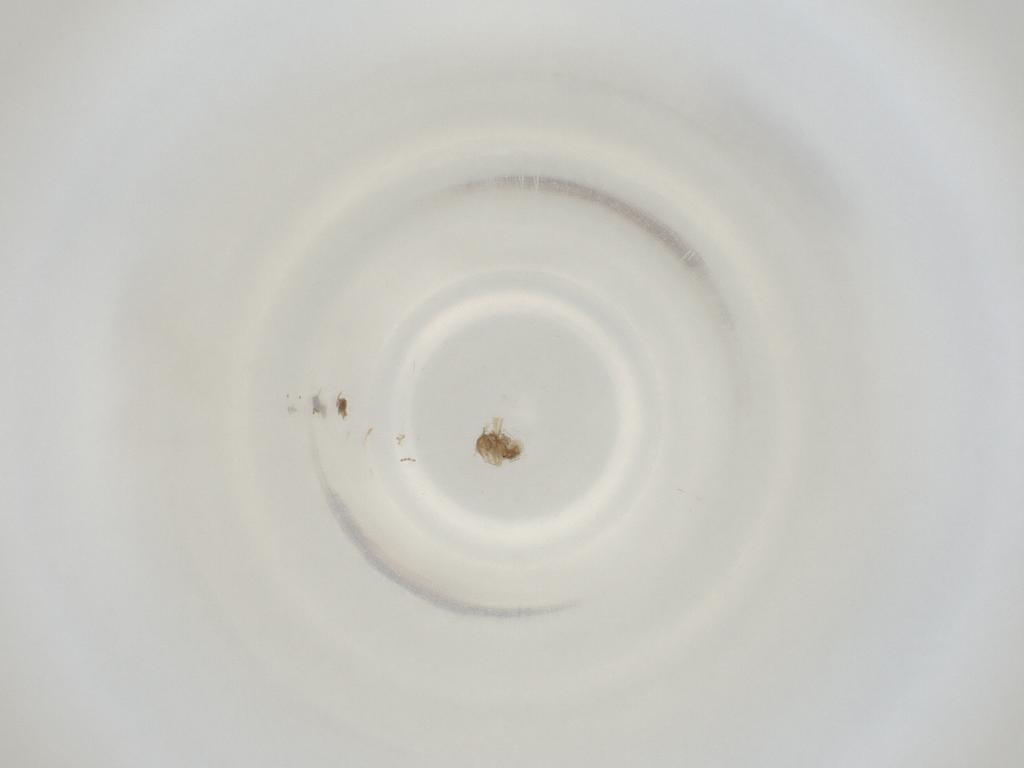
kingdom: Animalia
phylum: Arthropoda
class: Insecta
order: Diptera
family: Cecidomyiidae
